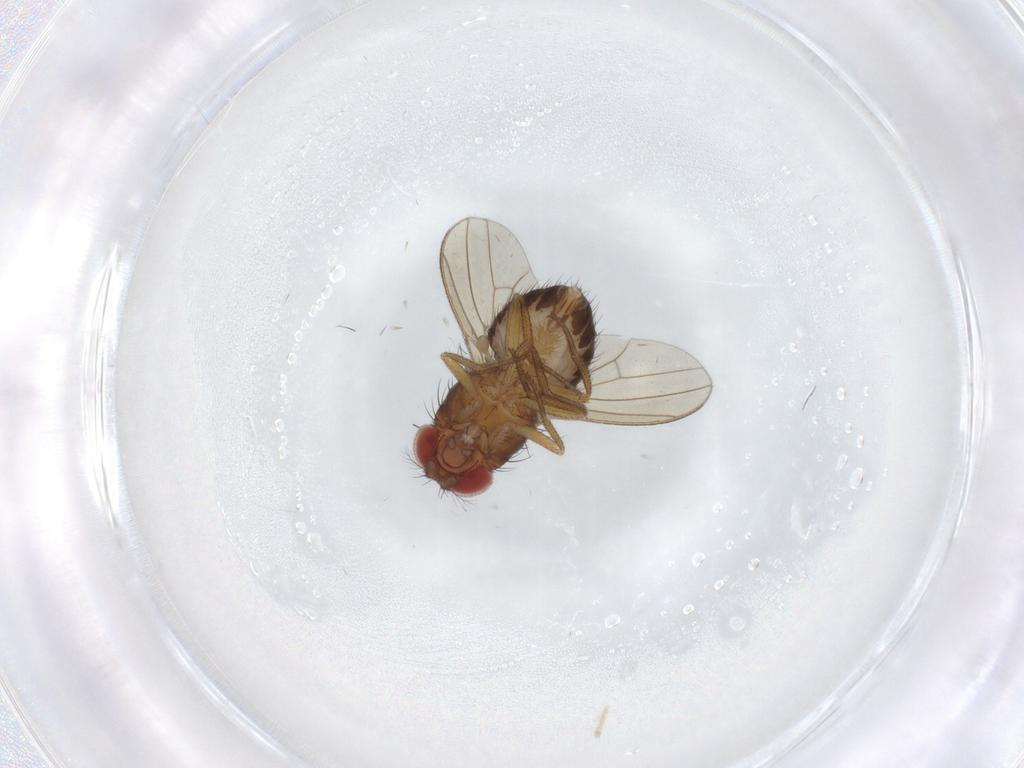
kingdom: Animalia
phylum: Arthropoda
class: Insecta
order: Diptera
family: Drosophilidae
